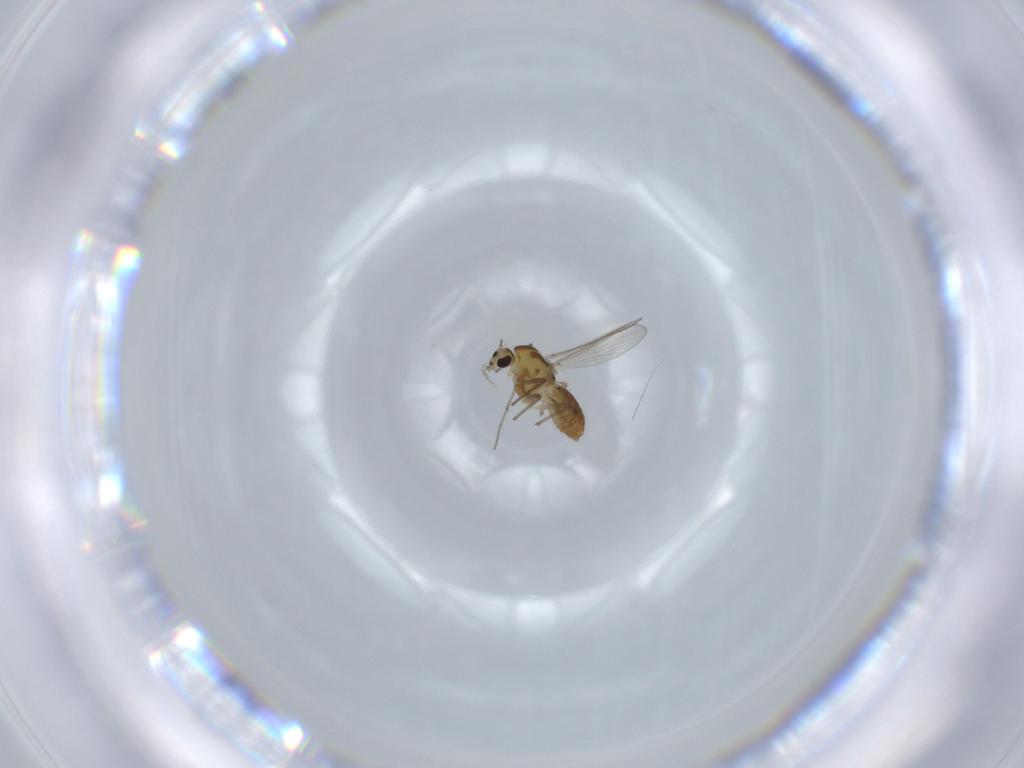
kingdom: Animalia
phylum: Arthropoda
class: Insecta
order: Diptera
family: Chironomidae
